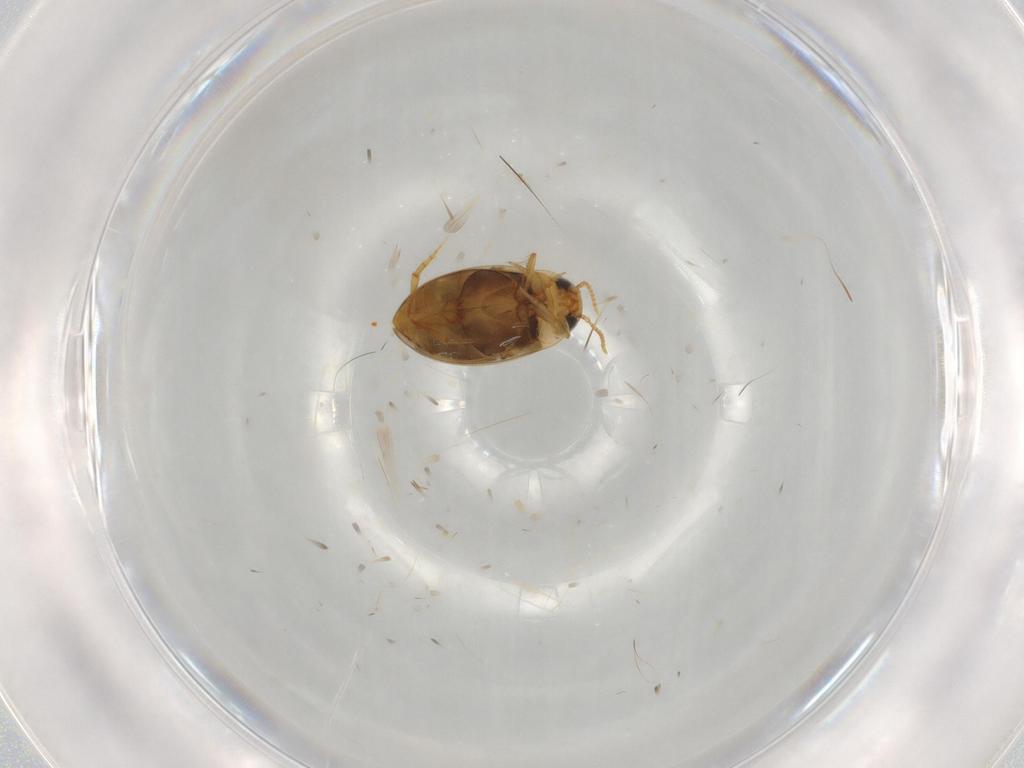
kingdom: Animalia
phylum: Arthropoda
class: Insecta
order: Coleoptera
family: Dytiscidae
